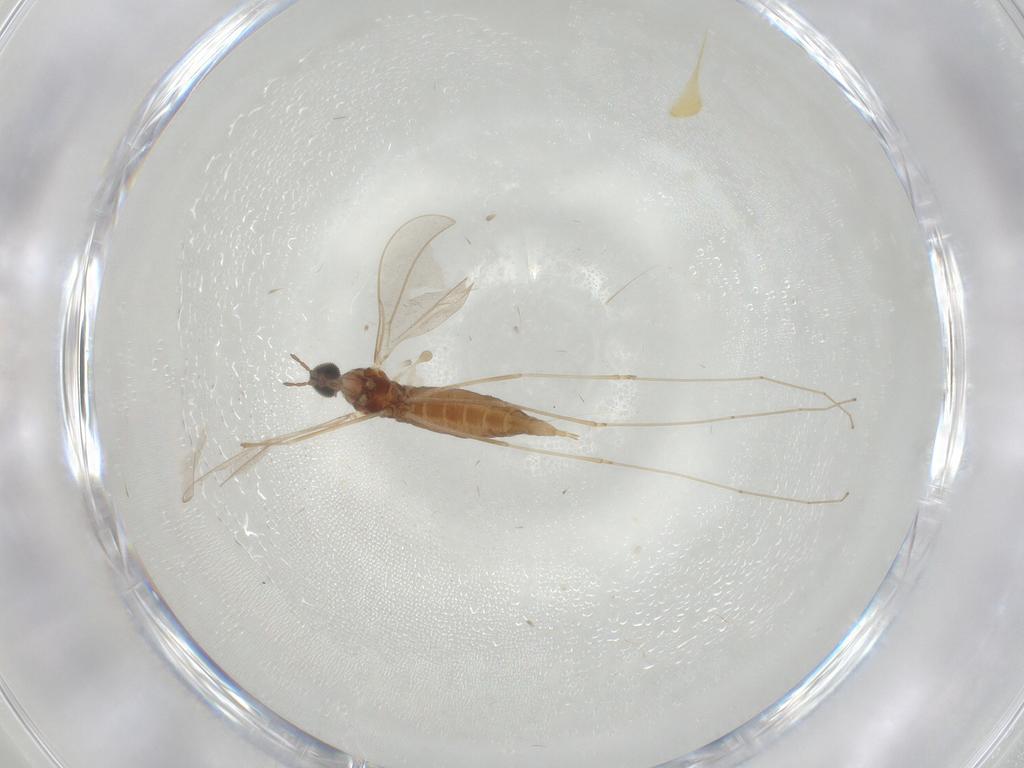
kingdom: Animalia
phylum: Arthropoda
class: Insecta
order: Diptera
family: Cecidomyiidae
